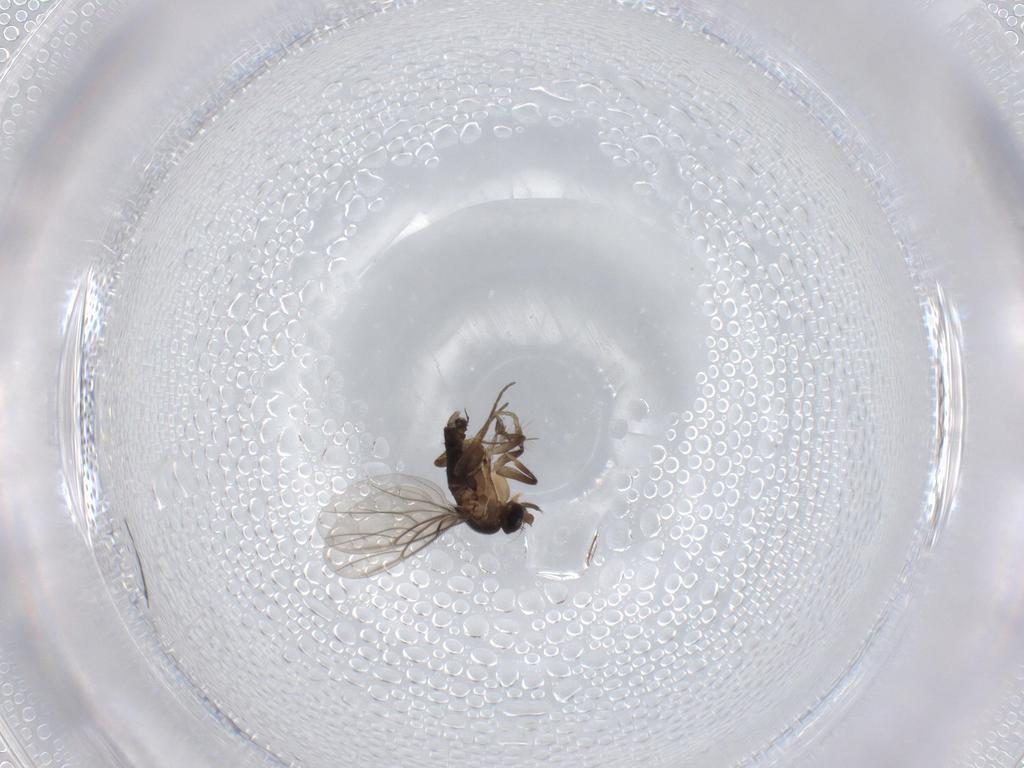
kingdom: Animalia
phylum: Arthropoda
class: Insecta
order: Diptera
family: Phoridae
